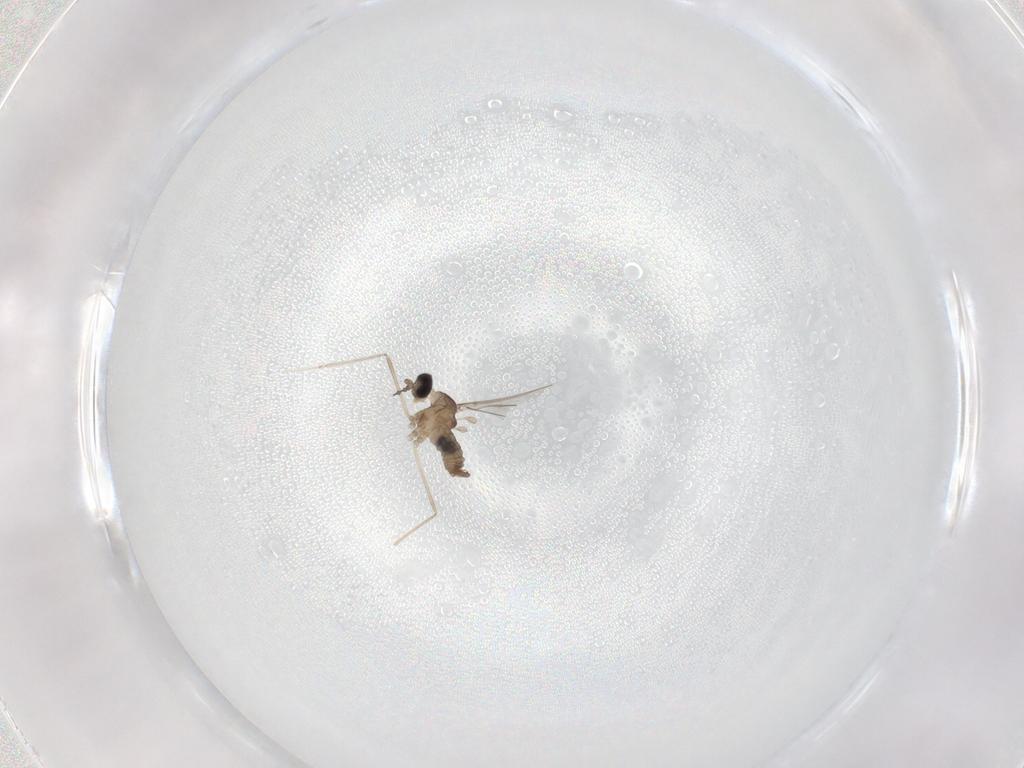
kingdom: Animalia
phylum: Arthropoda
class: Insecta
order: Diptera
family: Cecidomyiidae
